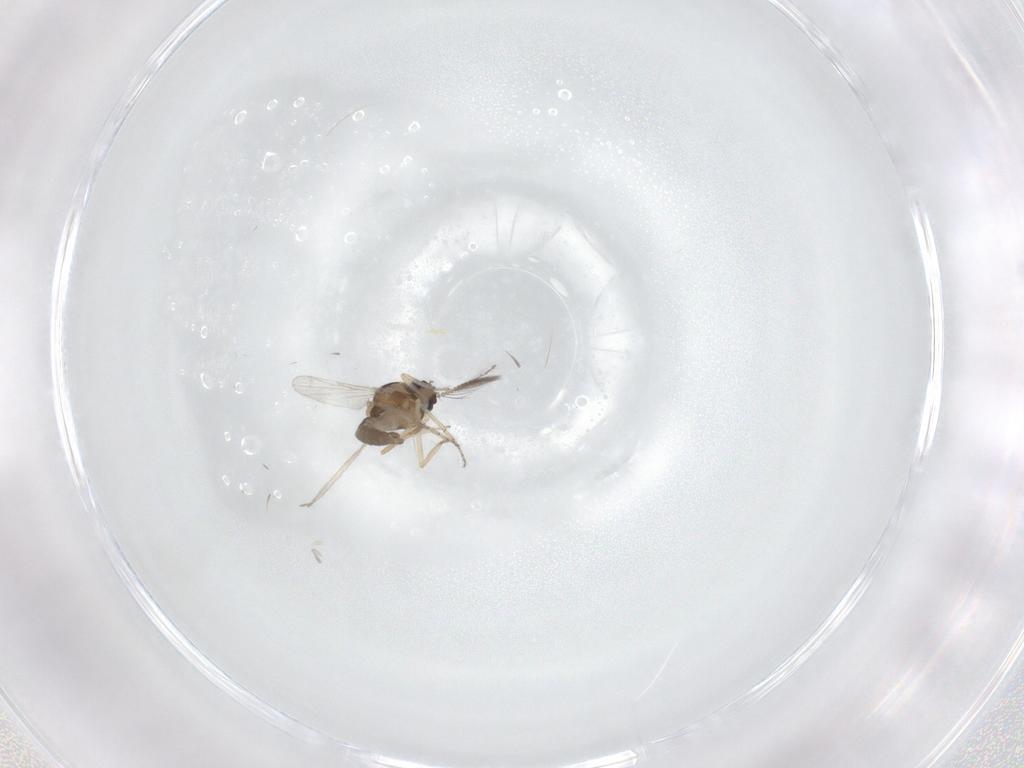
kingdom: Animalia
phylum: Arthropoda
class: Insecta
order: Diptera
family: Ceratopogonidae
